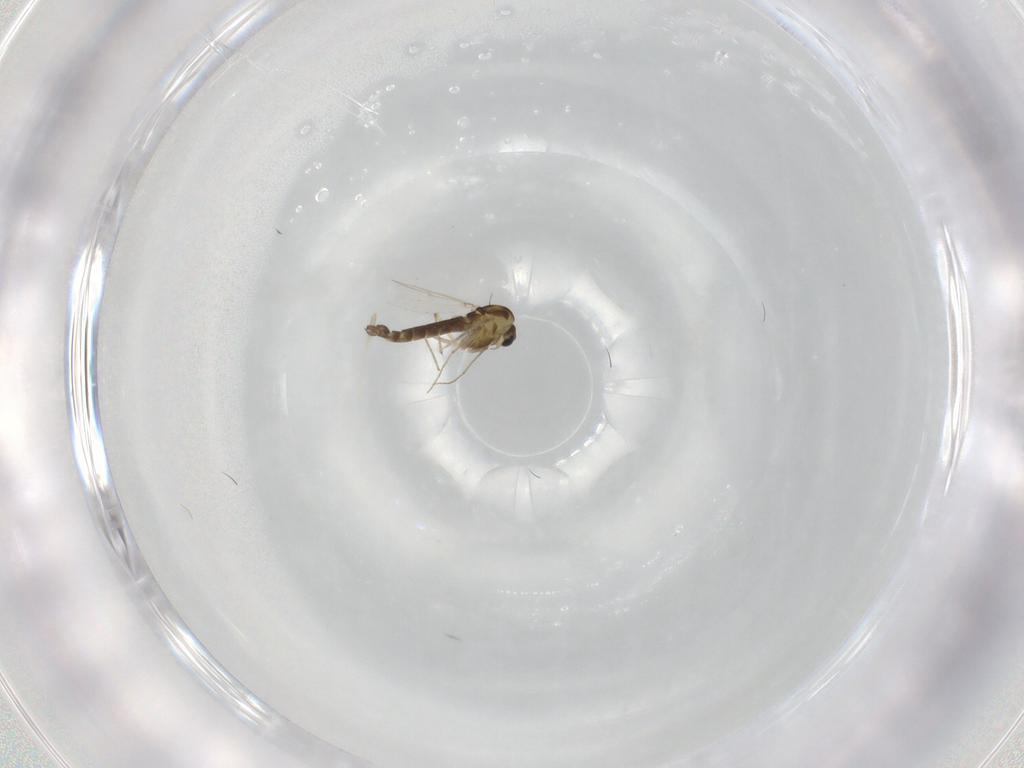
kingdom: Animalia
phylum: Arthropoda
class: Insecta
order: Diptera
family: Chironomidae
